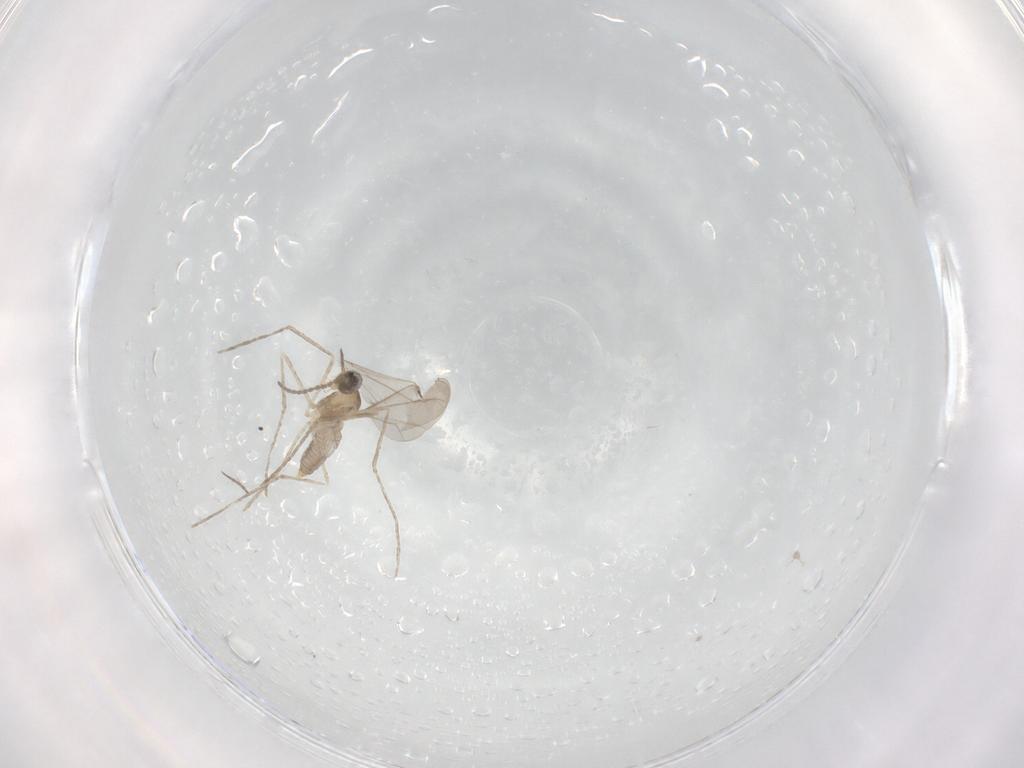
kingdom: Animalia
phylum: Arthropoda
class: Insecta
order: Diptera
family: Cecidomyiidae
